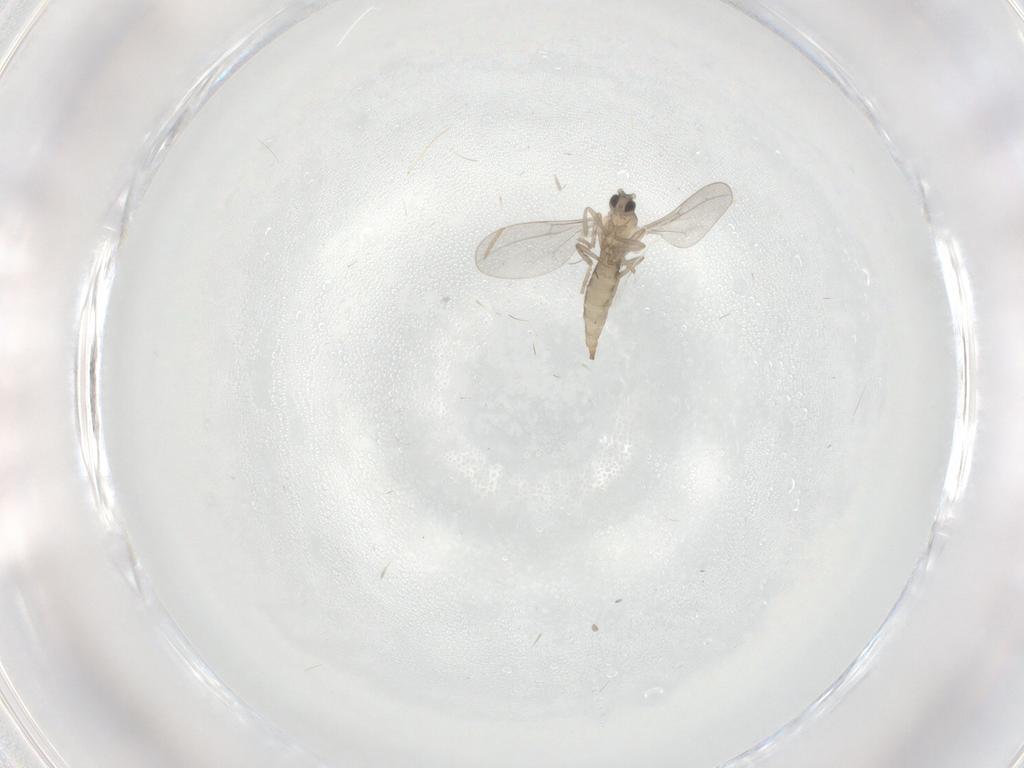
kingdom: Animalia
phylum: Arthropoda
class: Insecta
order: Diptera
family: Cecidomyiidae
